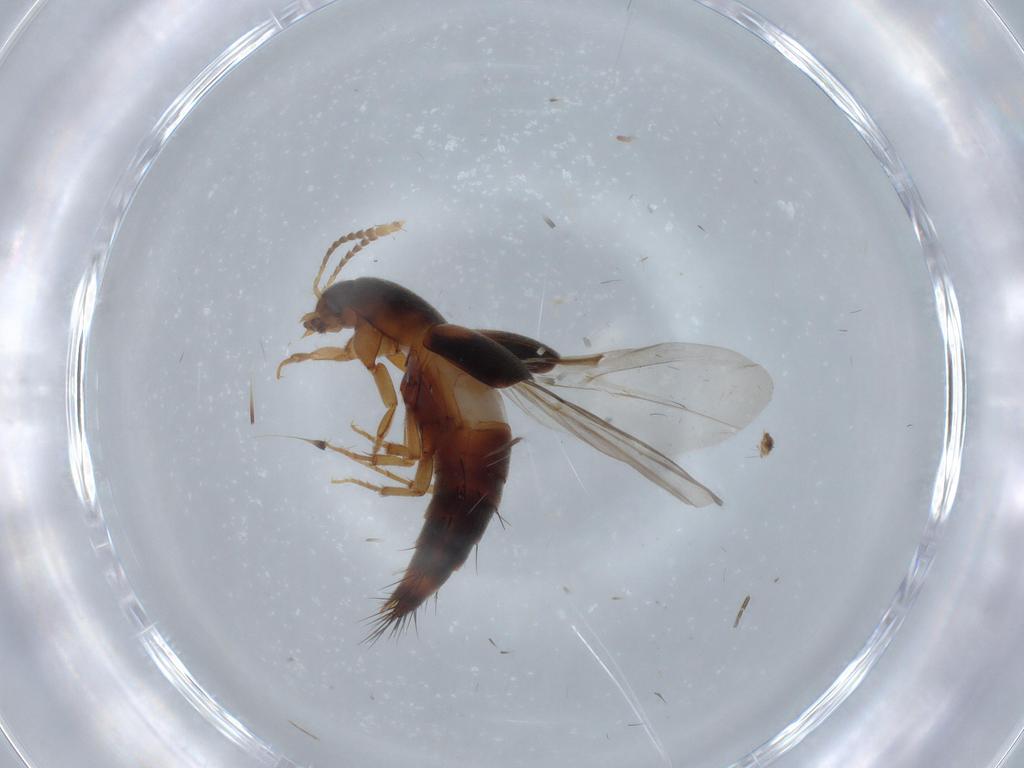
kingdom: Animalia
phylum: Arthropoda
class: Insecta
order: Coleoptera
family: Staphylinidae
